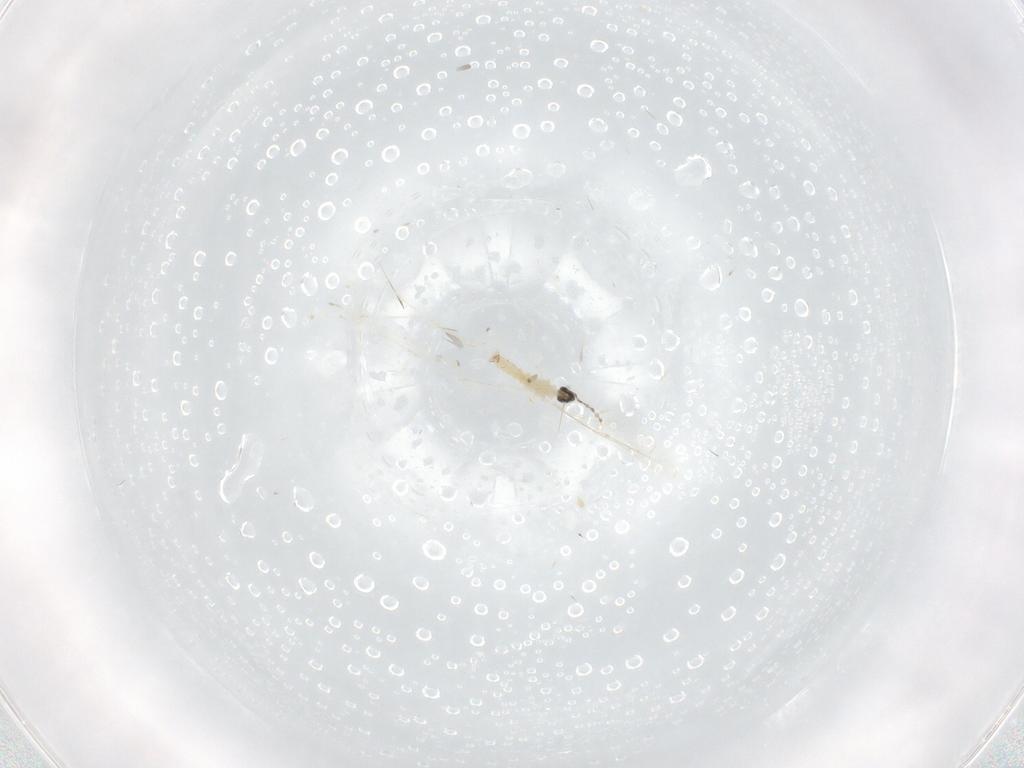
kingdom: Animalia
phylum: Arthropoda
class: Insecta
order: Diptera
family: Cecidomyiidae
